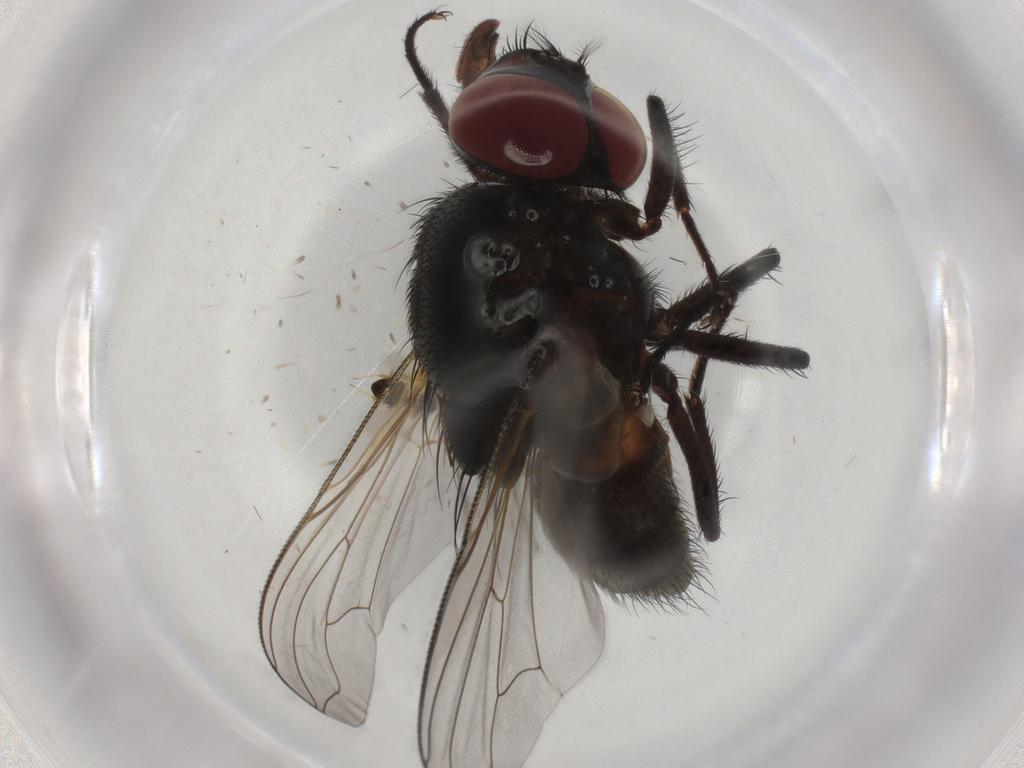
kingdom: Animalia
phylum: Arthropoda
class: Insecta
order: Diptera
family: Muscidae
